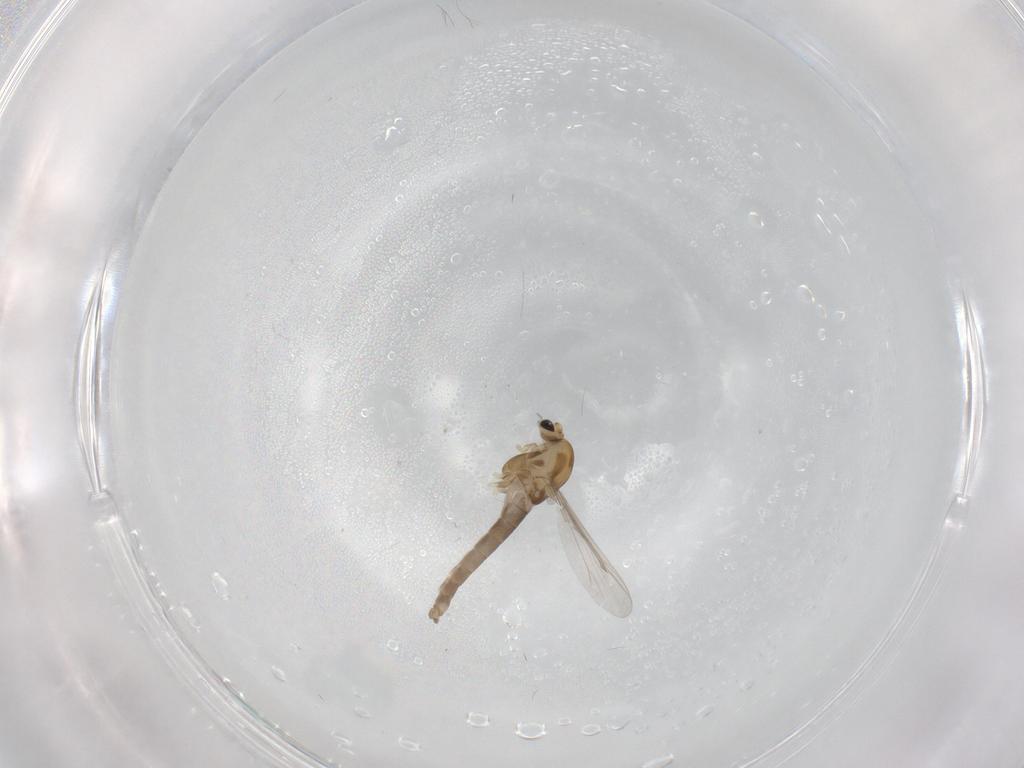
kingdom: Animalia
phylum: Arthropoda
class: Insecta
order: Diptera
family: Chironomidae
